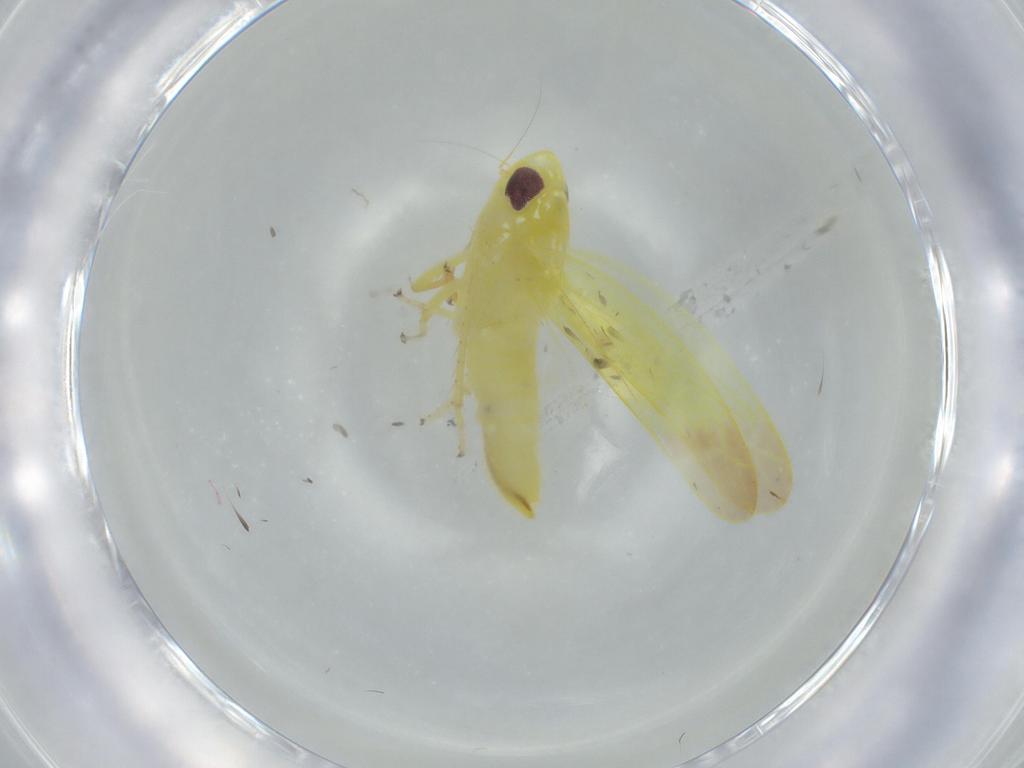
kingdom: Animalia
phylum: Arthropoda
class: Insecta
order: Hemiptera
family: Cicadellidae
